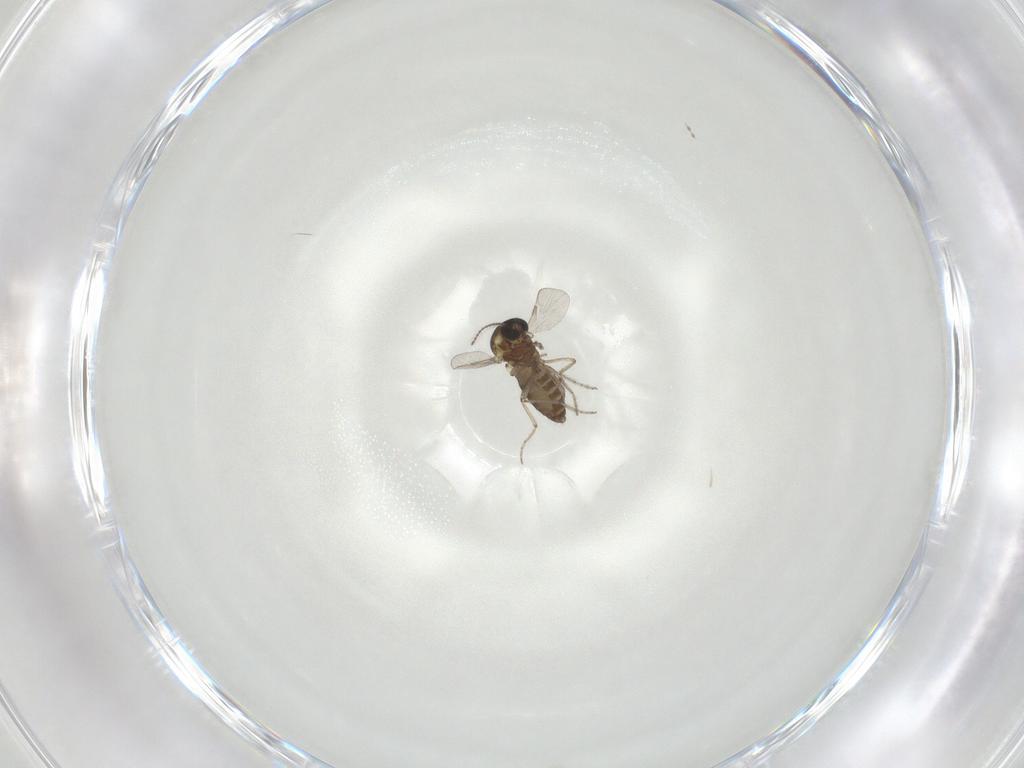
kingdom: Animalia
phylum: Arthropoda
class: Insecta
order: Diptera
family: Ceratopogonidae
